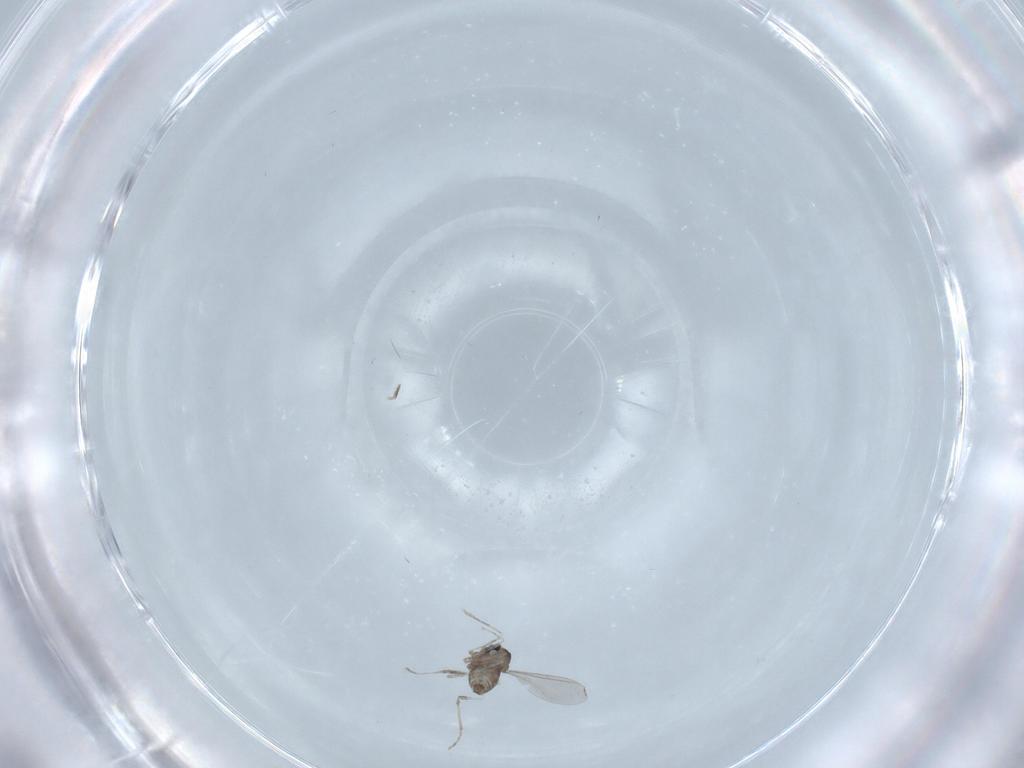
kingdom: Animalia
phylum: Arthropoda
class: Insecta
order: Diptera
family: Cecidomyiidae
